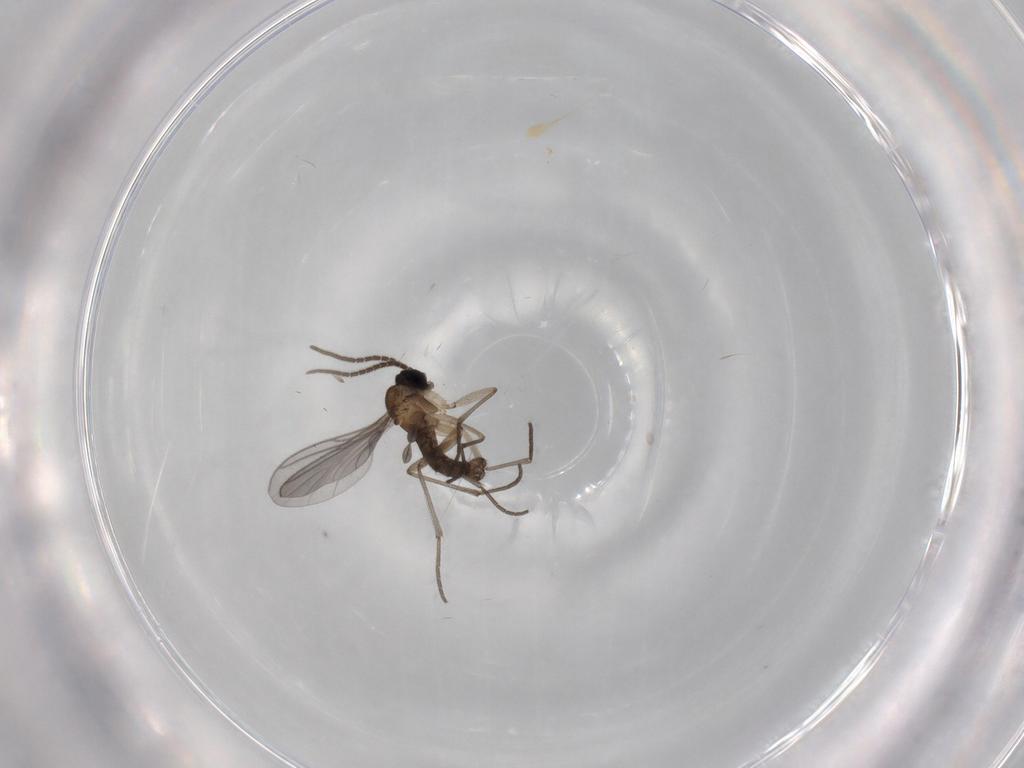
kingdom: Animalia
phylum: Arthropoda
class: Insecta
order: Diptera
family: Sciaridae
